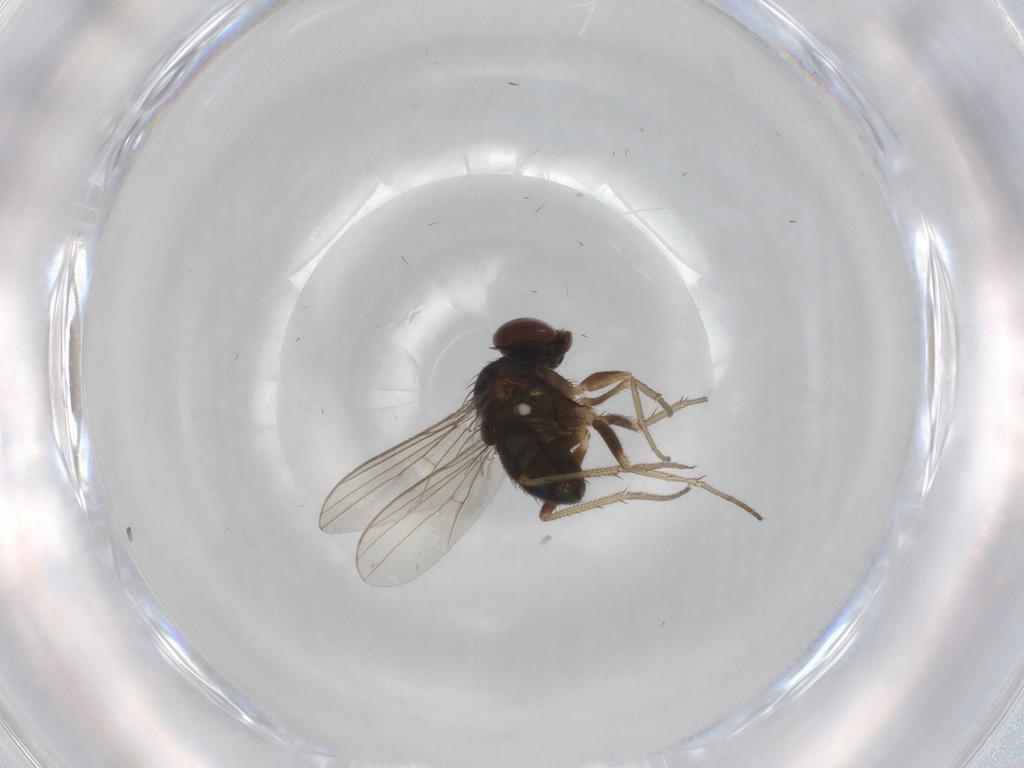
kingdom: Animalia
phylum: Arthropoda
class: Insecta
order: Diptera
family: Dolichopodidae
